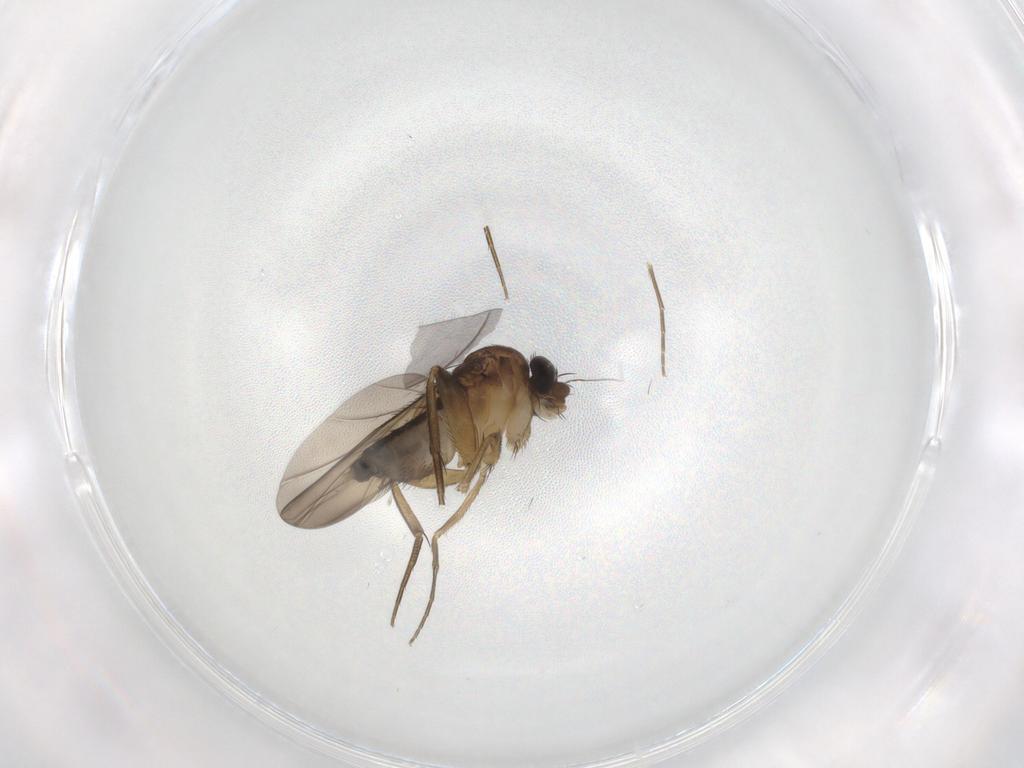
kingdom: Animalia
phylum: Arthropoda
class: Insecta
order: Diptera
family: Phoridae
